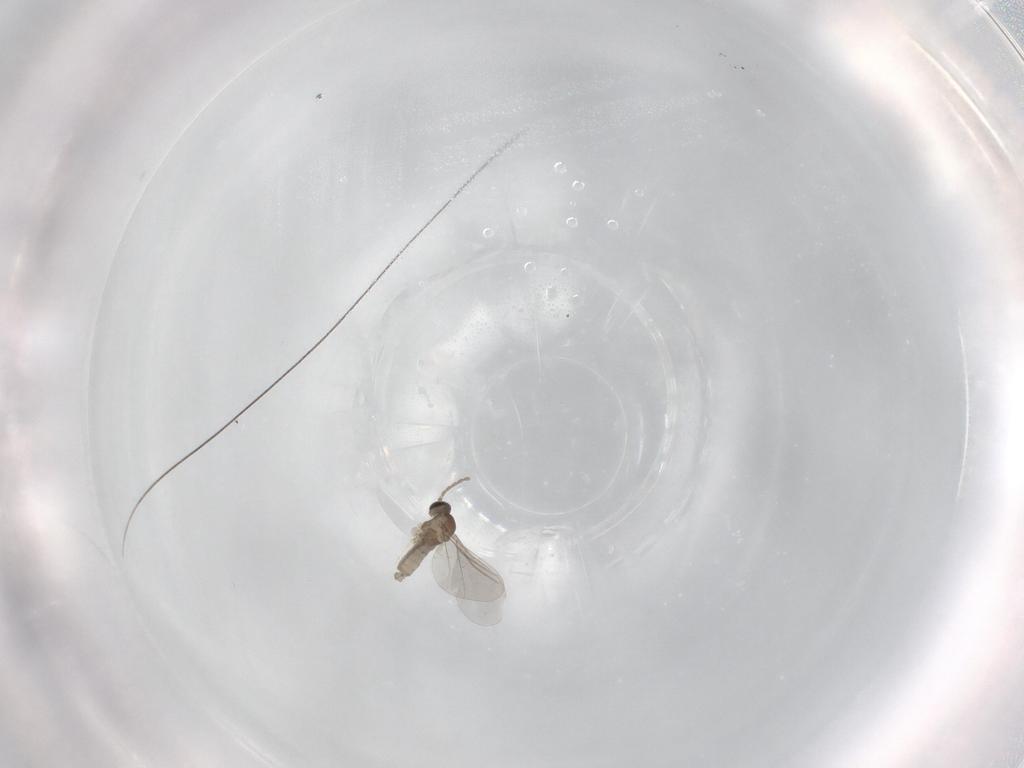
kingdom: Animalia
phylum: Arthropoda
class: Insecta
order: Diptera
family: Cecidomyiidae
